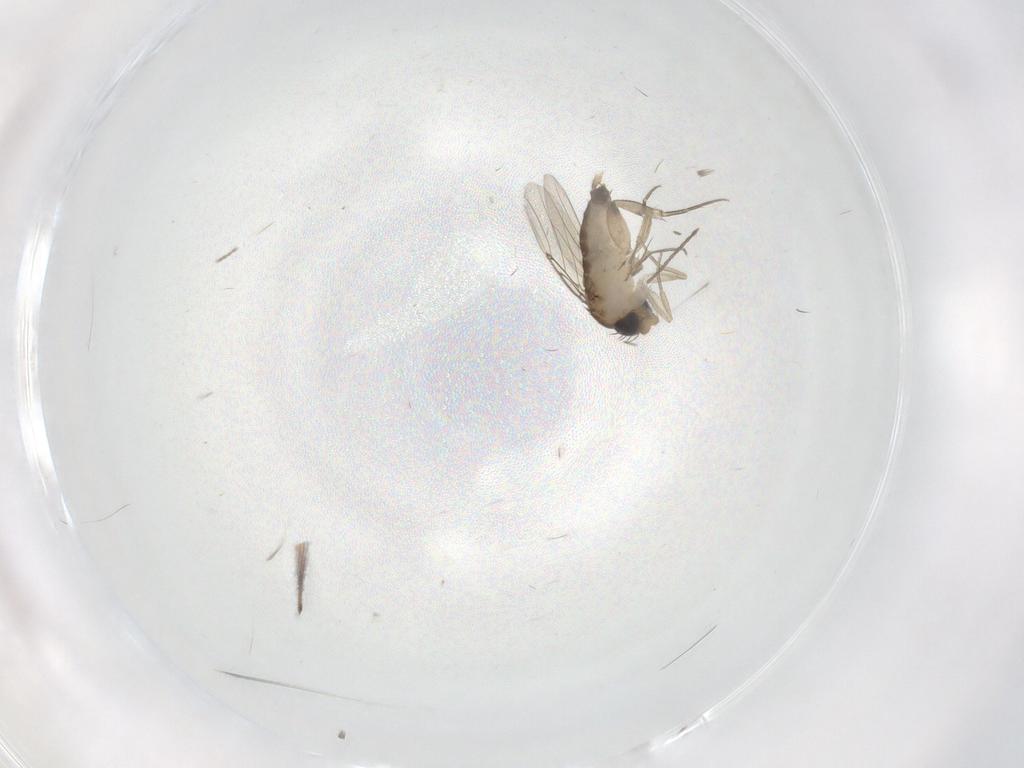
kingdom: Animalia
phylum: Arthropoda
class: Insecta
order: Diptera
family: Phoridae
